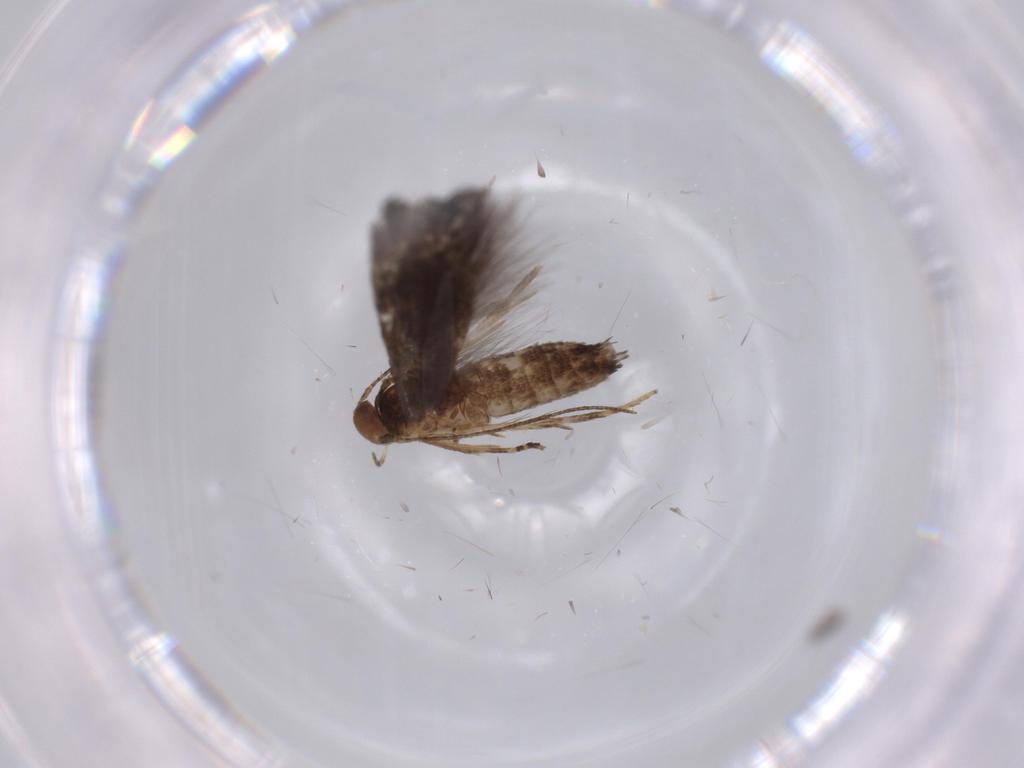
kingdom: Animalia
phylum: Arthropoda
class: Insecta
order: Lepidoptera
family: Gelechiidae
